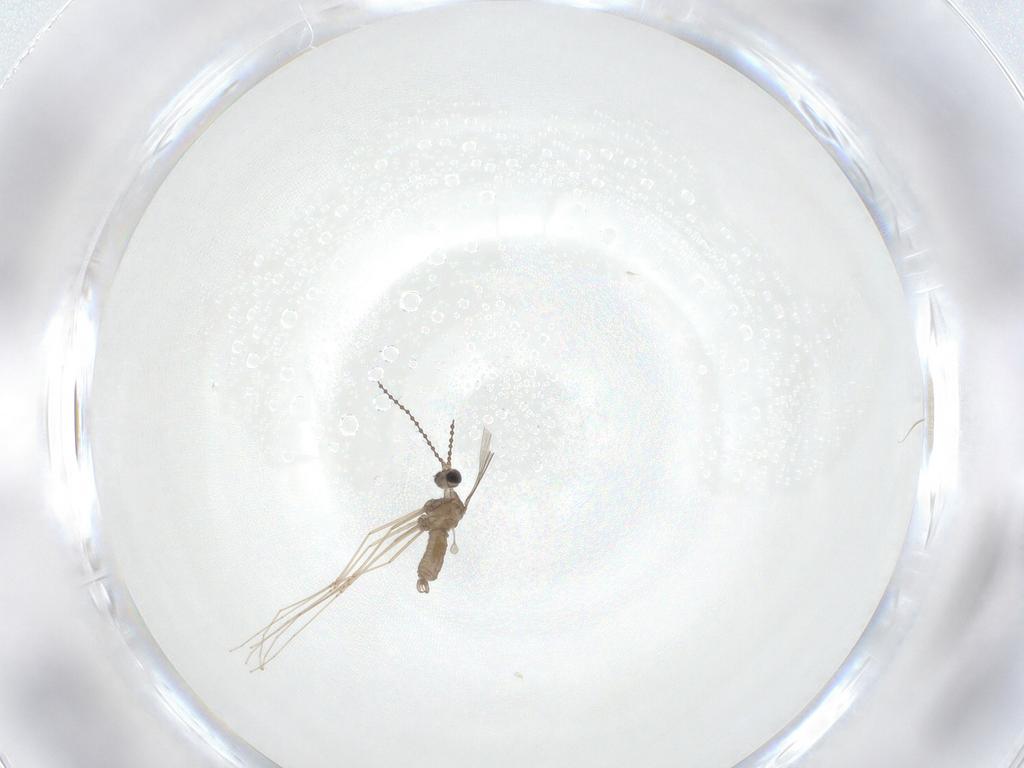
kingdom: Animalia
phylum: Arthropoda
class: Insecta
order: Diptera
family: Cecidomyiidae
